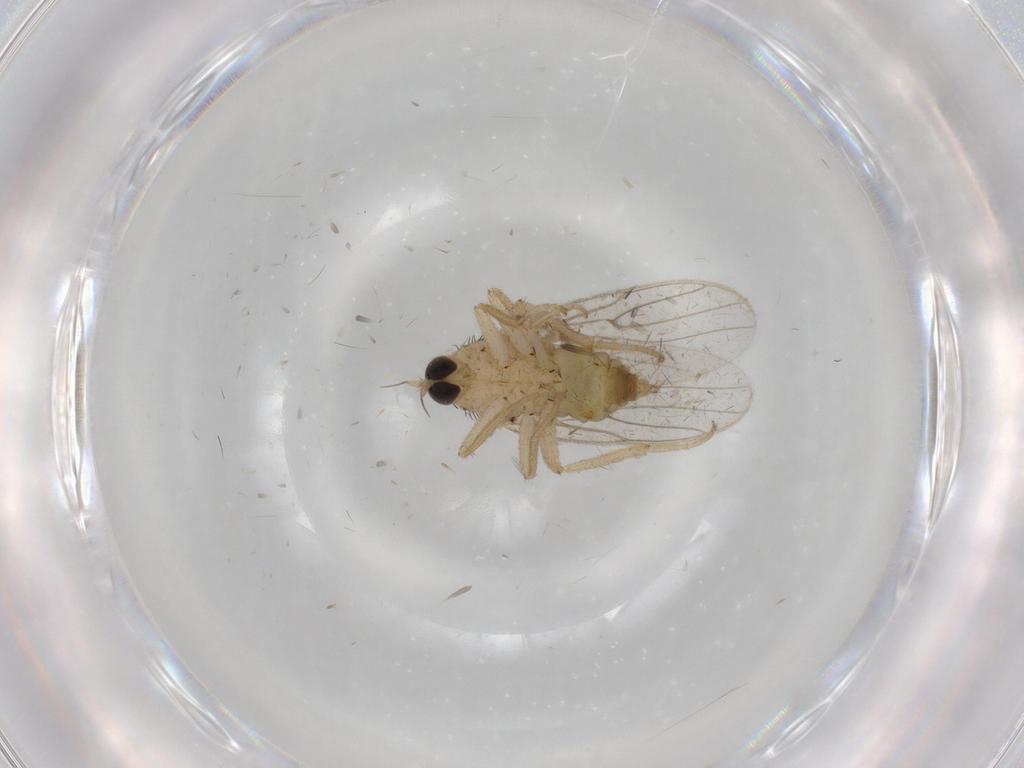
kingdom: Animalia
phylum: Arthropoda
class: Insecta
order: Diptera
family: Hybotidae
